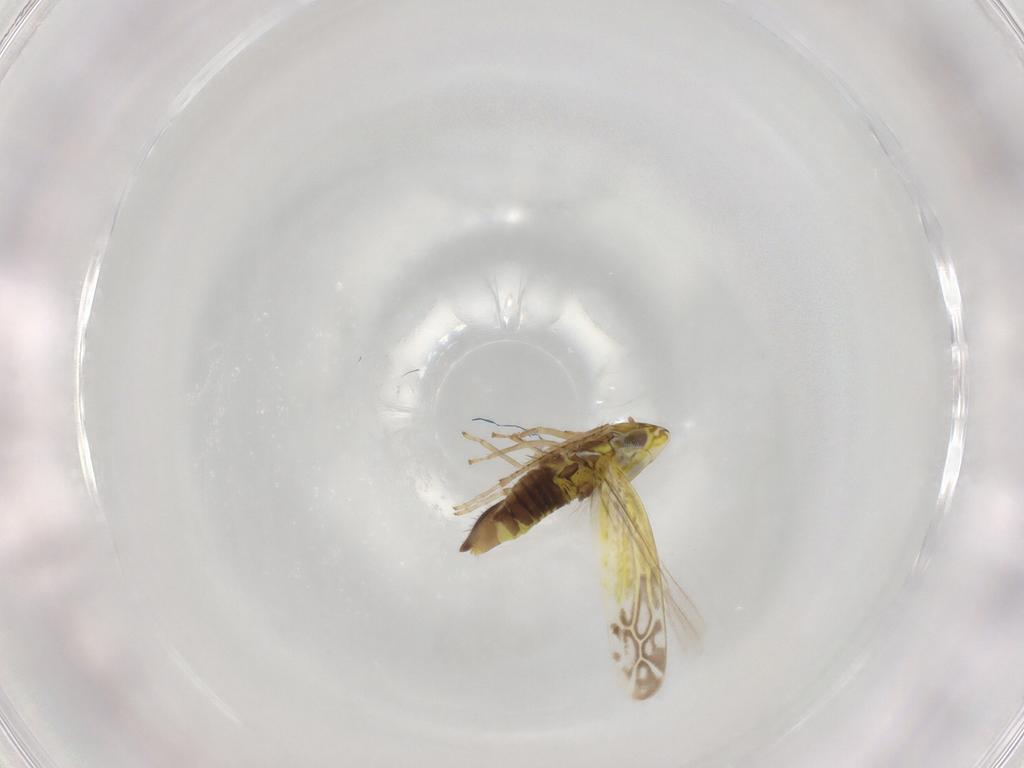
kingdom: Animalia
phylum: Arthropoda
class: Insecta
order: Hemiptera
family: Cicadellidae
